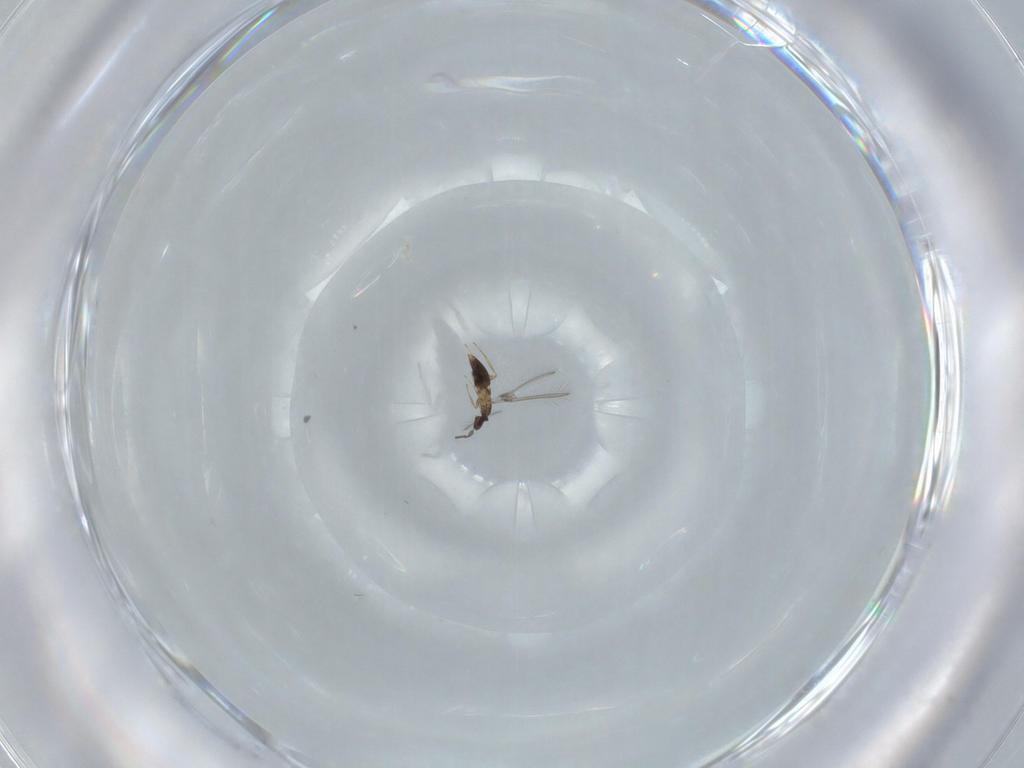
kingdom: Animalia
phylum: Arthropoda
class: Insecta
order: Hymenoptera
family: Mymaridae
